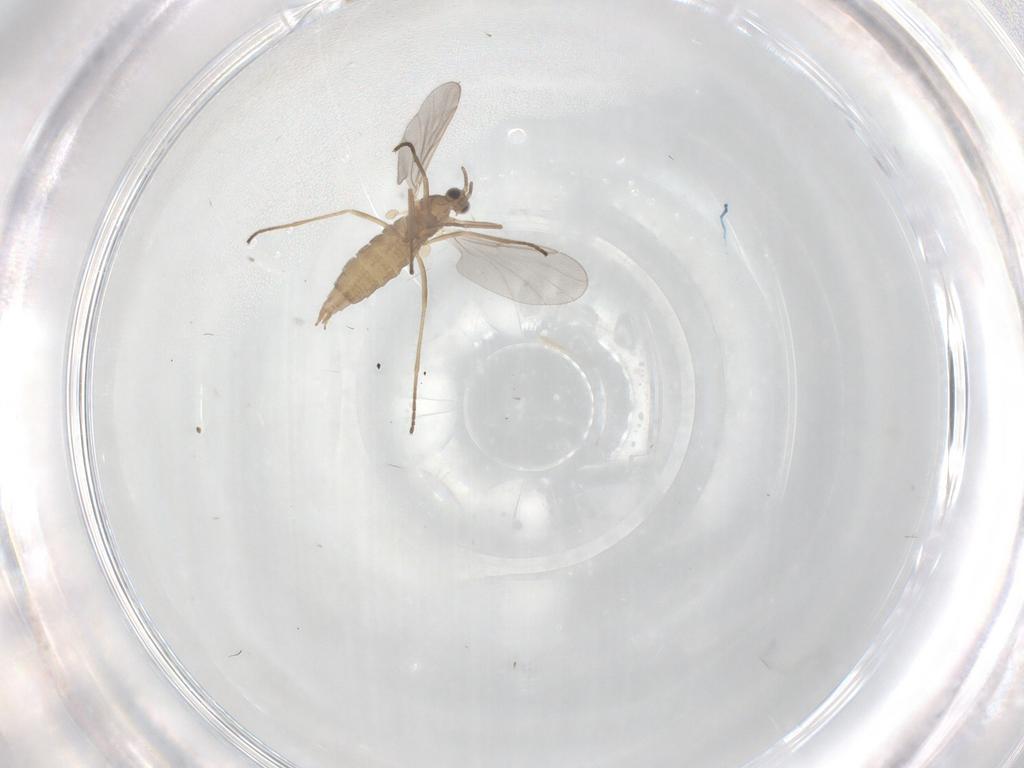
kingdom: Animalia
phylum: Arthropoda
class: Insecta
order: Diptera
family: Cecidomyiidae
